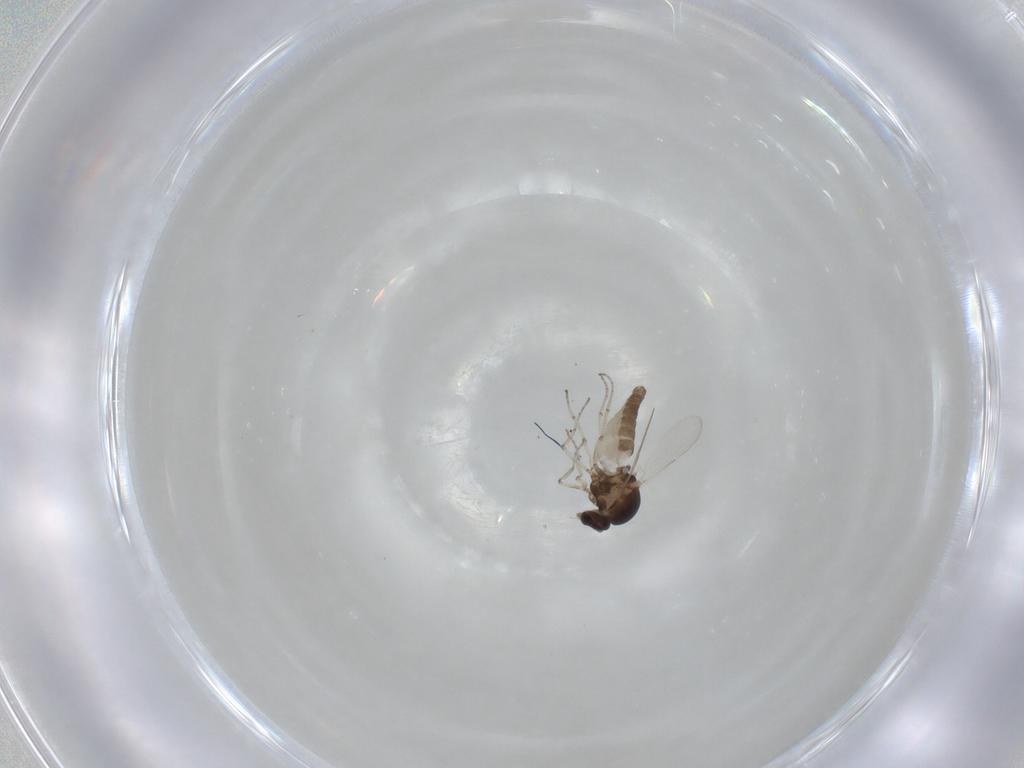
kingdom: Animalia
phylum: Arthropoda
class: Insecta
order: Diptera
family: Ceratopogonidae
